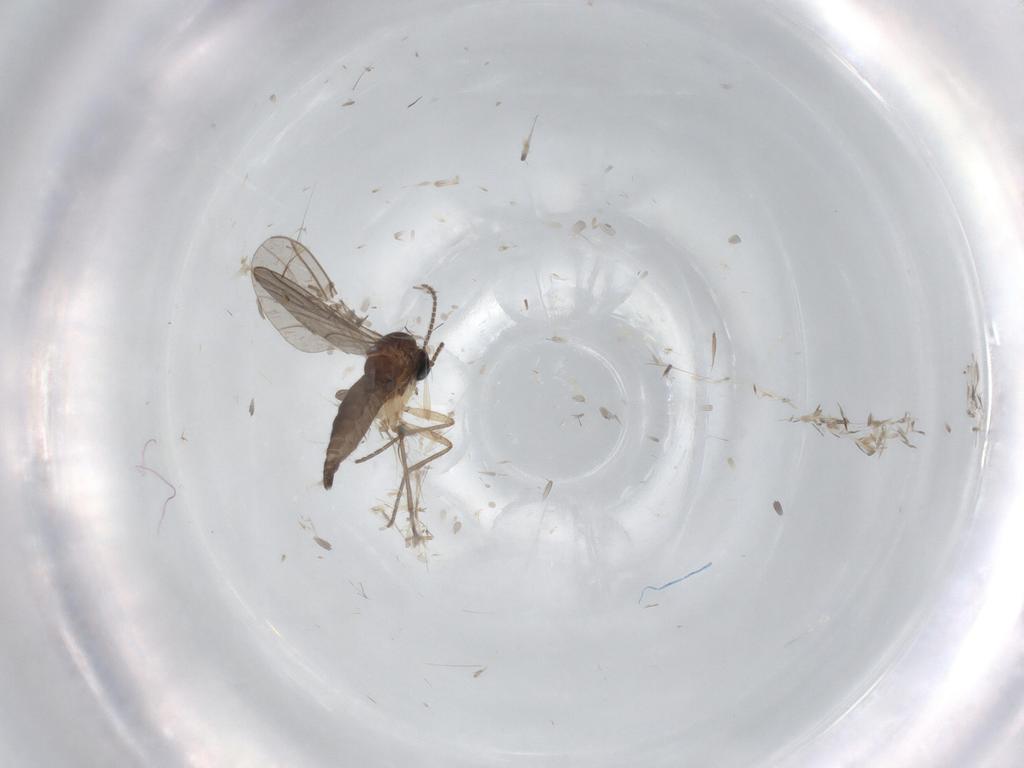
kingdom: Animalia
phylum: Arthropoda
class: Insecta
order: Diptera
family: Sciaridae
